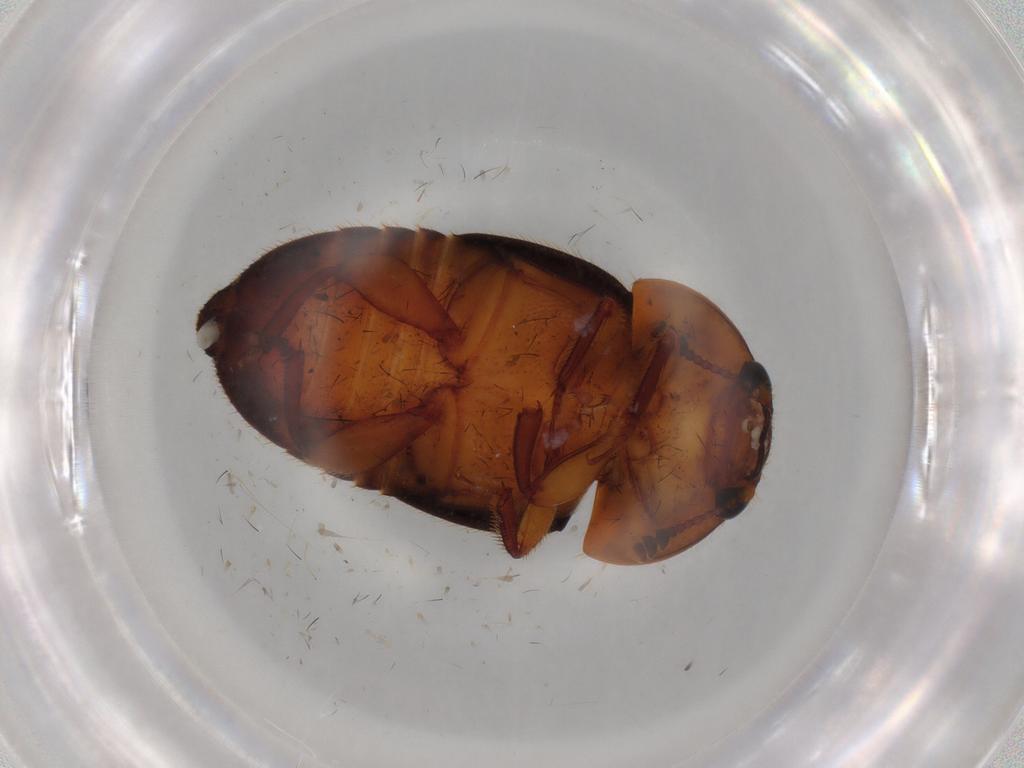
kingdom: Animalia
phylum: Arthropoda
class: Insecta
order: Coleoptera
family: Nitidulidae
